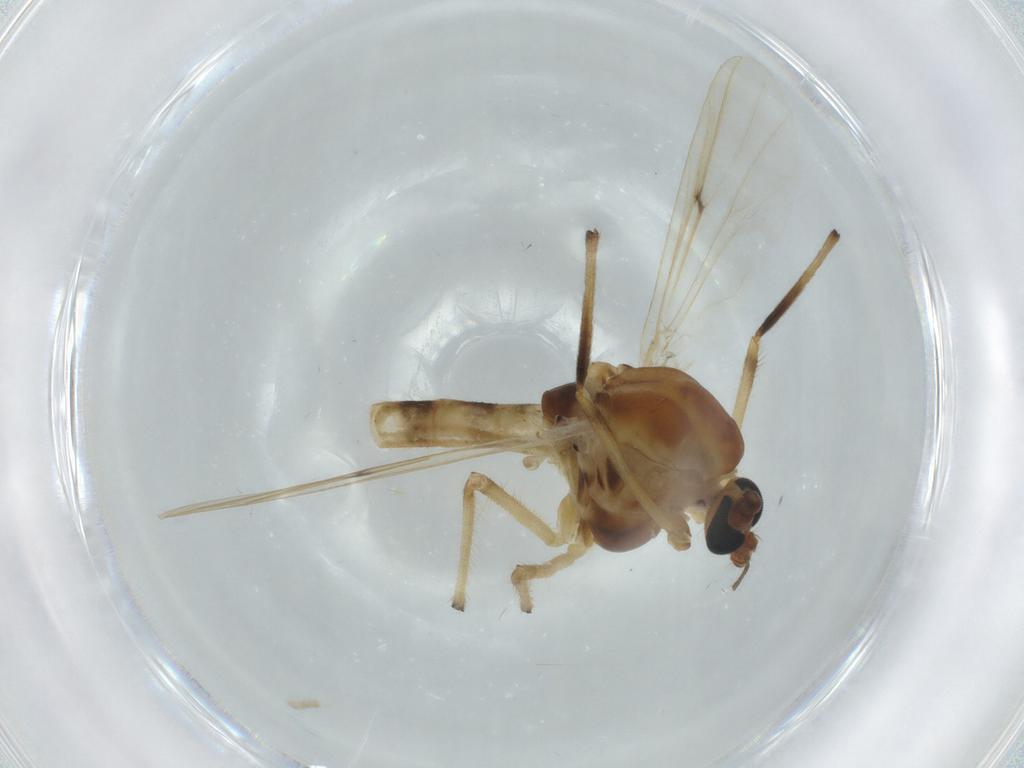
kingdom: Animalia
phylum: Arthropoda
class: Insecta
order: Diptera
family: Cecidomyiidae
